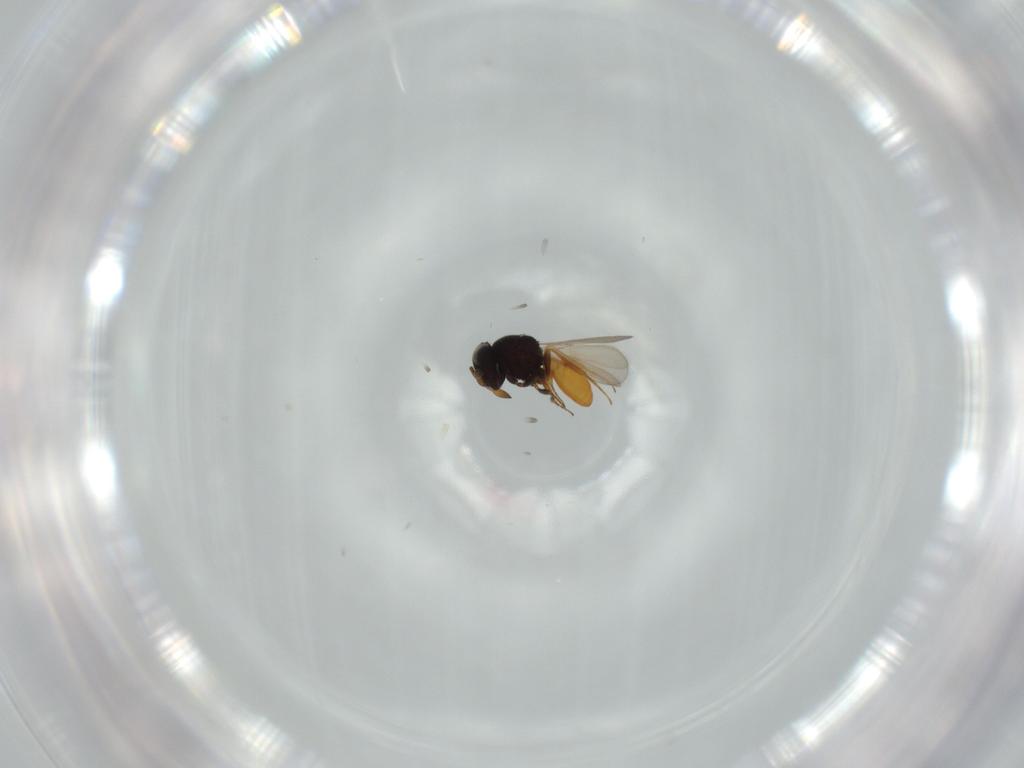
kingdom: Animalia
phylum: Arthropoda
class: Insecta
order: Hymenoptera
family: Scelionidae
